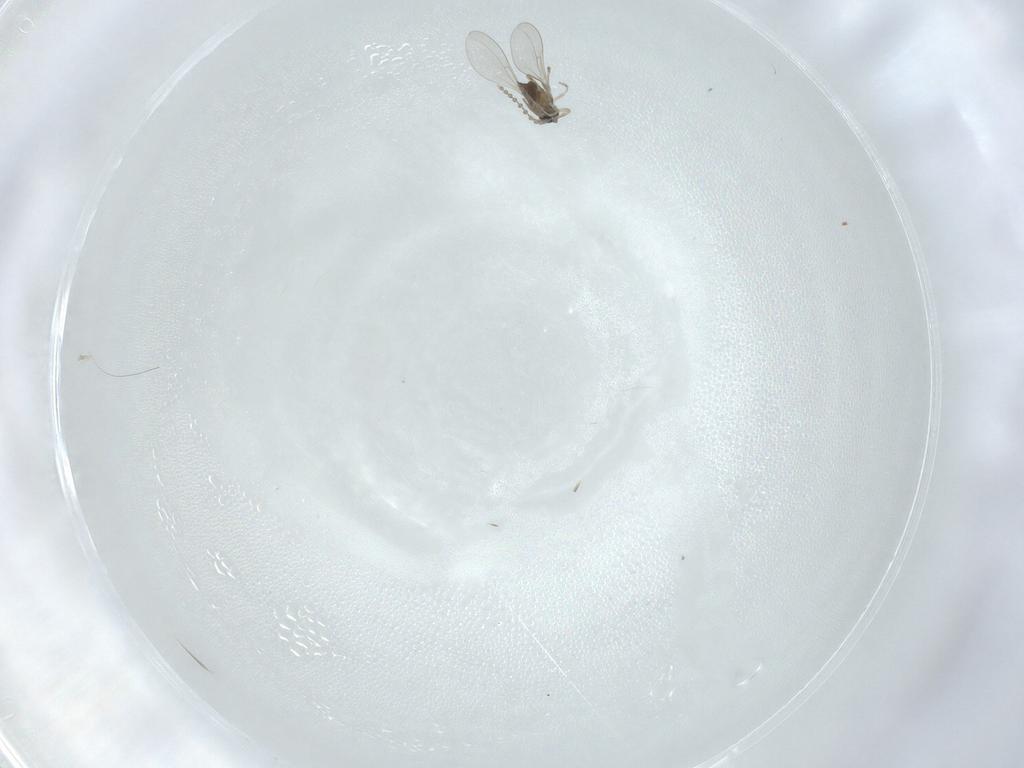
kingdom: Animalia
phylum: Arthropoda
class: Insecta
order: Diptera
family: Cecidomyiidae
